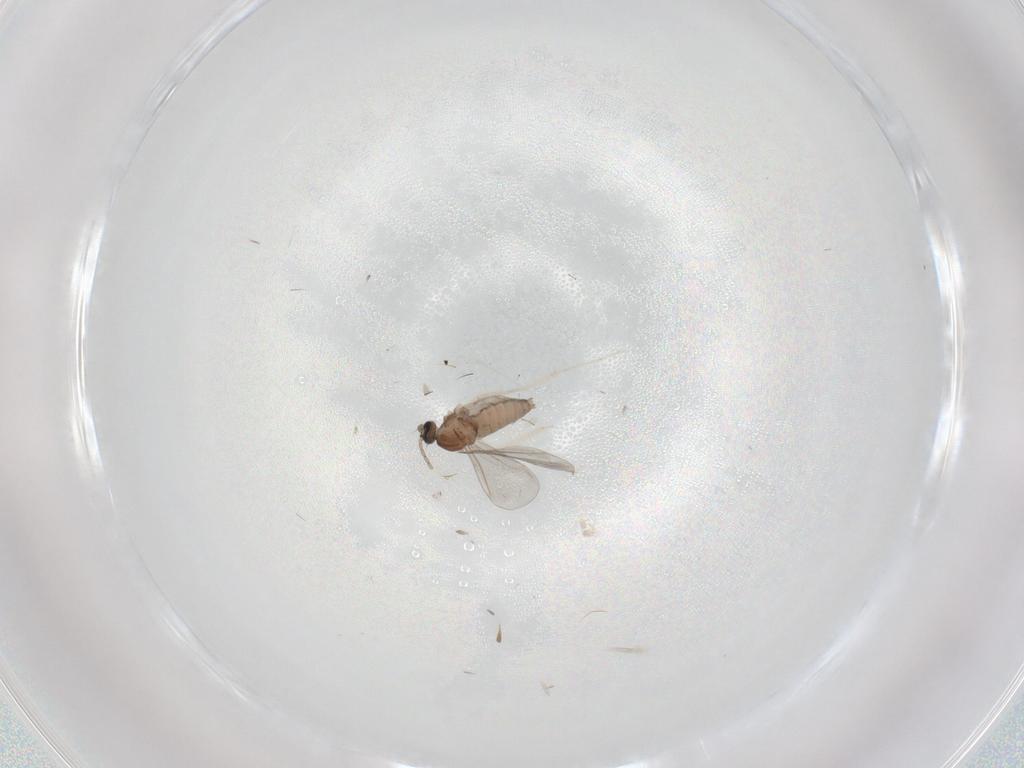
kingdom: Animalia
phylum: Arthropoda
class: Insecta
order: Diptera
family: Cecidomyiidae
